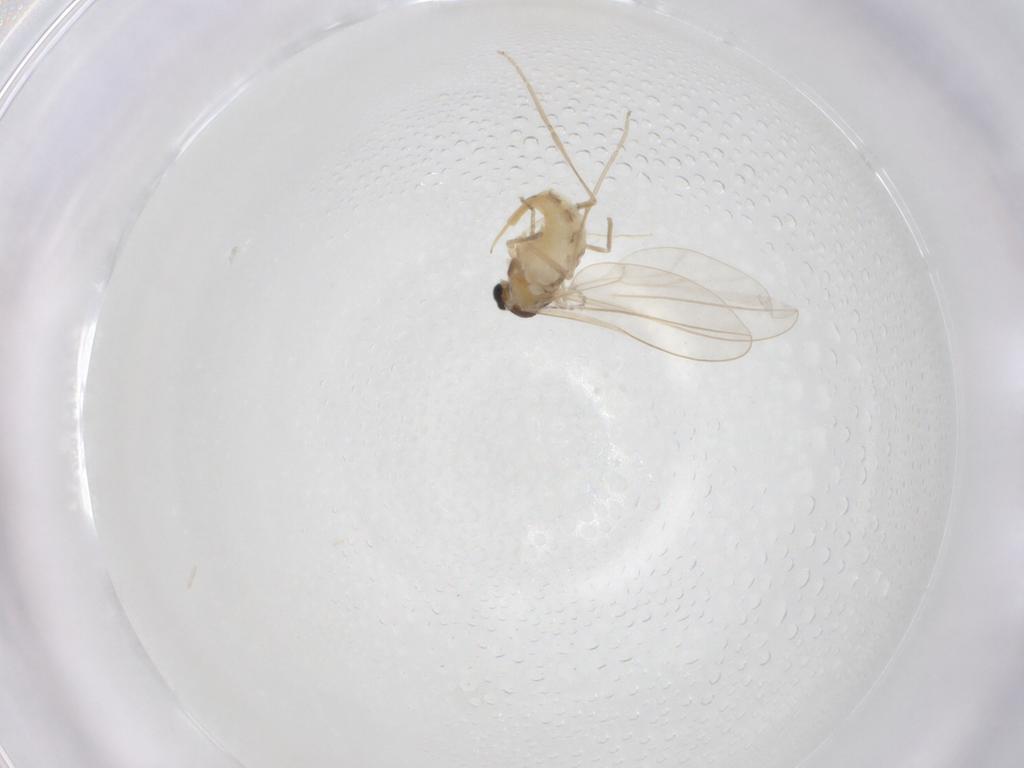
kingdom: Animalia
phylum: Arthropoda
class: Insecta
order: Diptera
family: Cecidomyiidae
